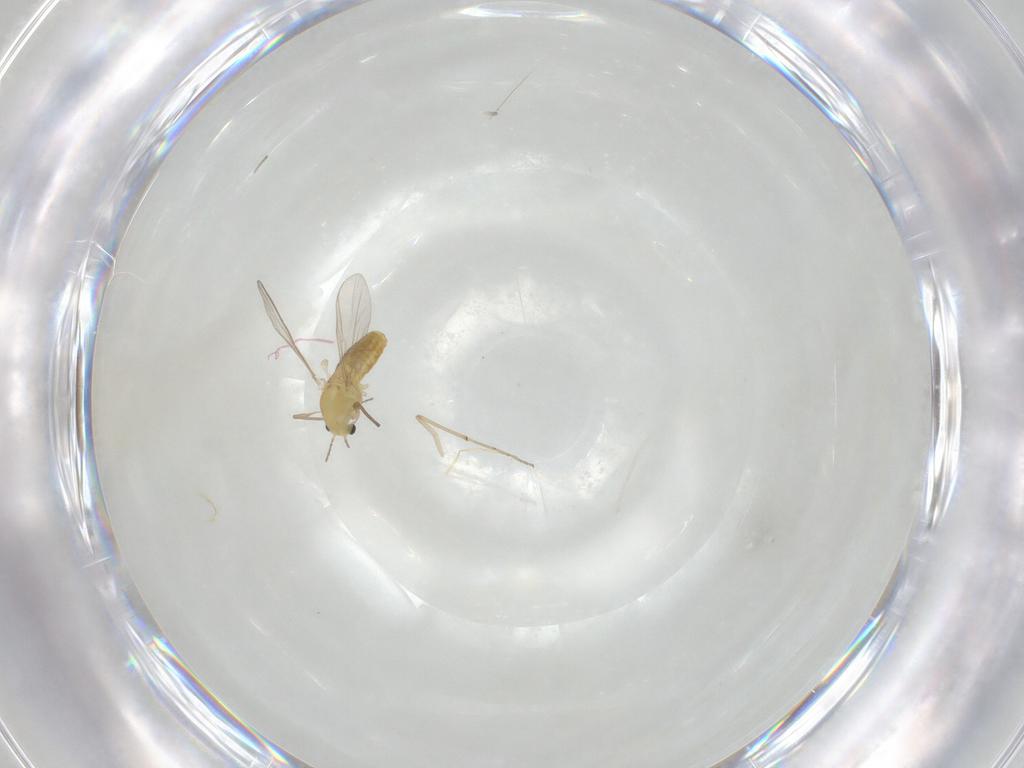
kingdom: Animalia
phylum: Arthropoda
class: Insecta
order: Diptera
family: Chironomidae
